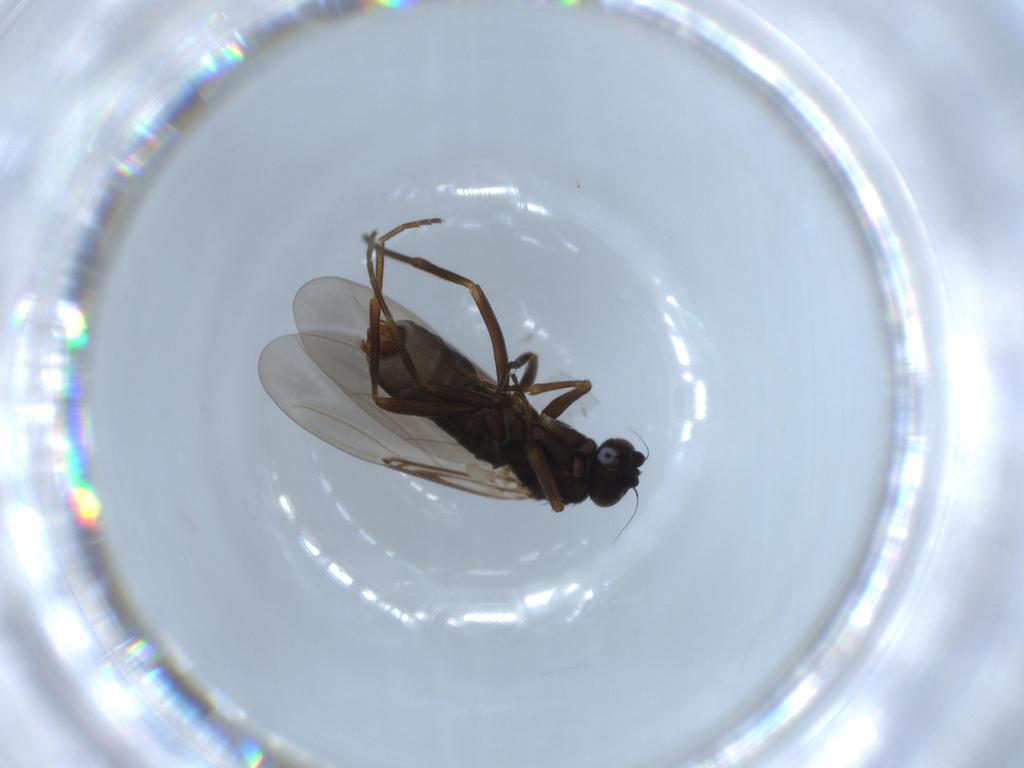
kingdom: Animalia
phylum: Arthropoda
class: Insecta
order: Diptera
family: Phoridae
